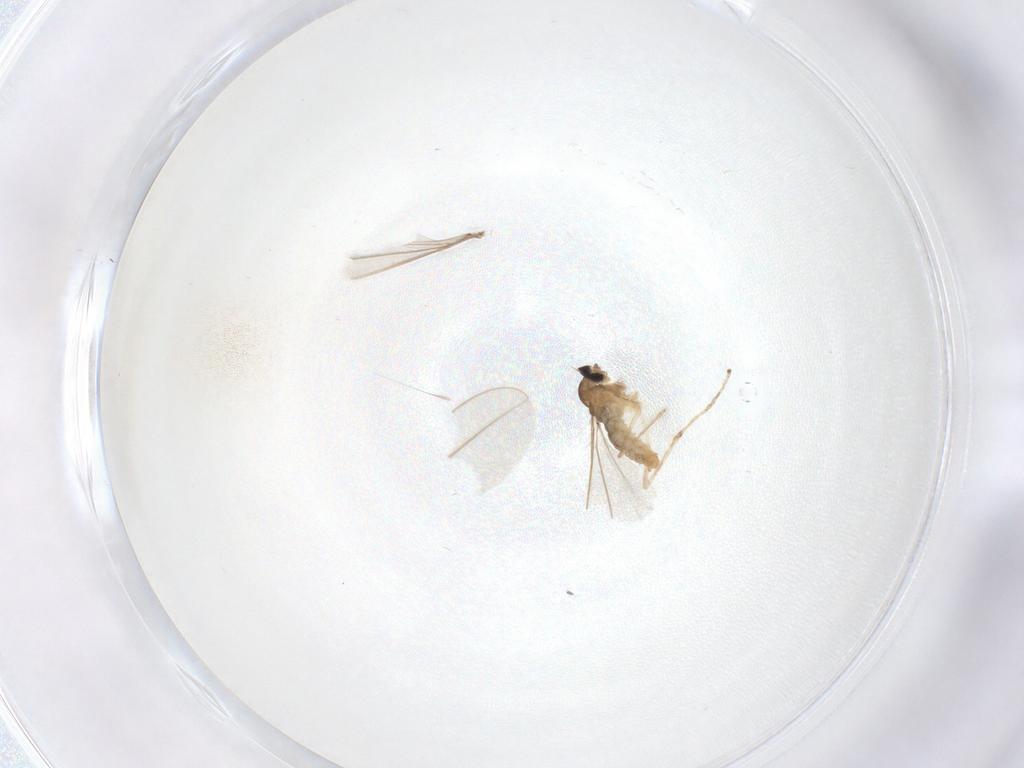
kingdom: Animalia
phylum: Arthropoda
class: Insecta
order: Diptera
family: Cecidomyiidae
